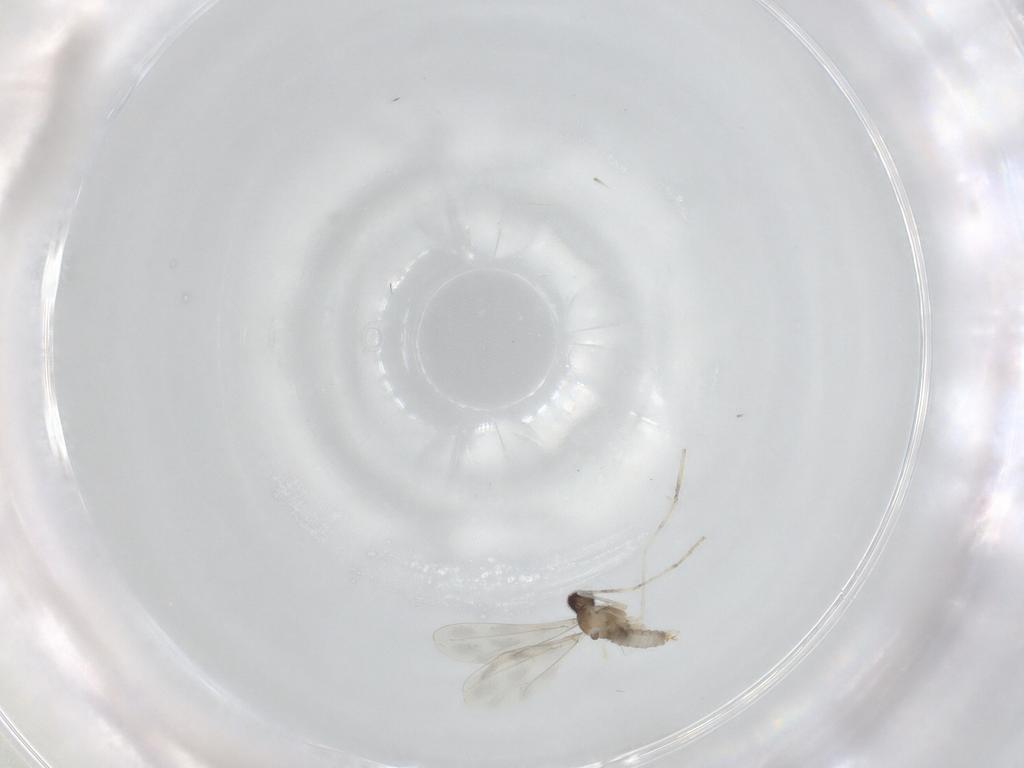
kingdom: Animalia
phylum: Arthropoda
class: Insecta
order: Diptera
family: Cecidomyiidae
